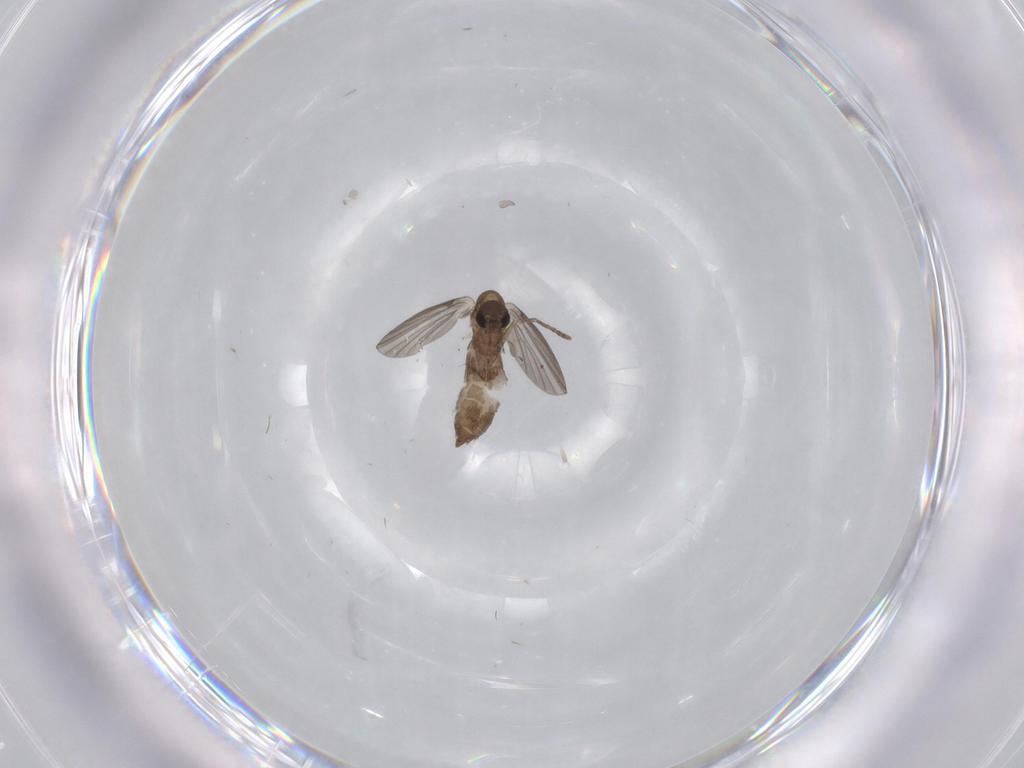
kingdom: Animalia
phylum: Arthropoda
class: Insecta
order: Diptera
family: Cecidomyiidae
